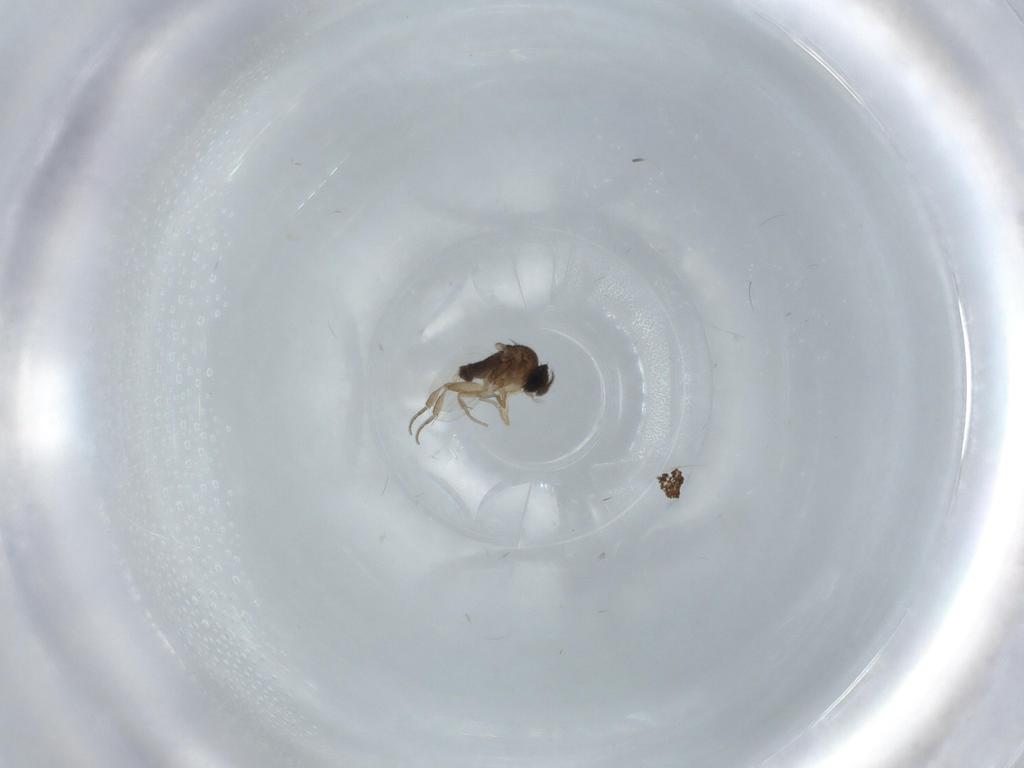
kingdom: Animalia
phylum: Arthropoda
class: Insecta
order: Diptera
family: Phoridae
